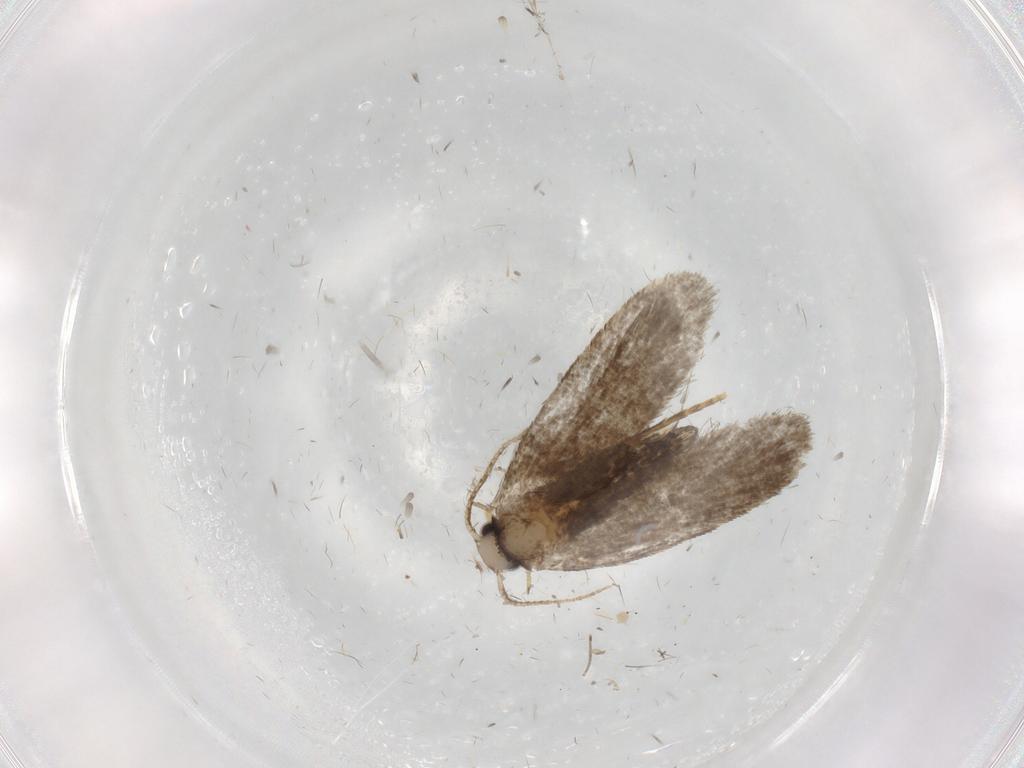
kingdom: Animalia
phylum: Arthropoda
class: Insecta
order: Lepidoptera
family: Psychidae
